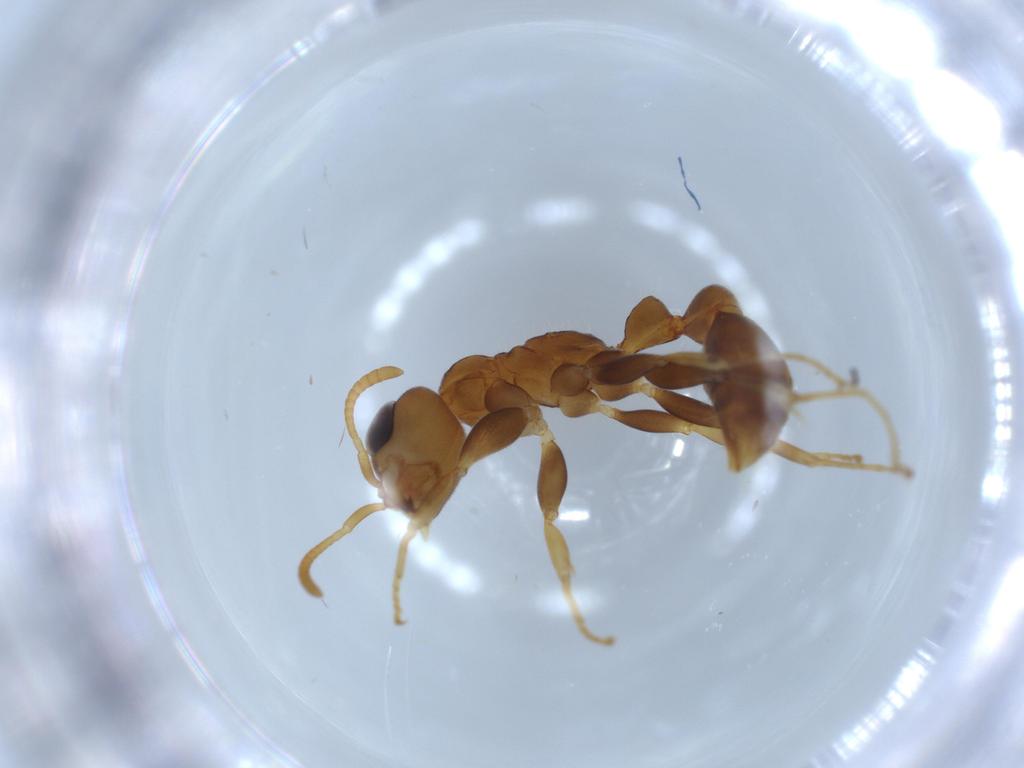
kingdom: Animalia
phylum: Arthropoda
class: Insecta
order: Hymenoptera
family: Formicidae
